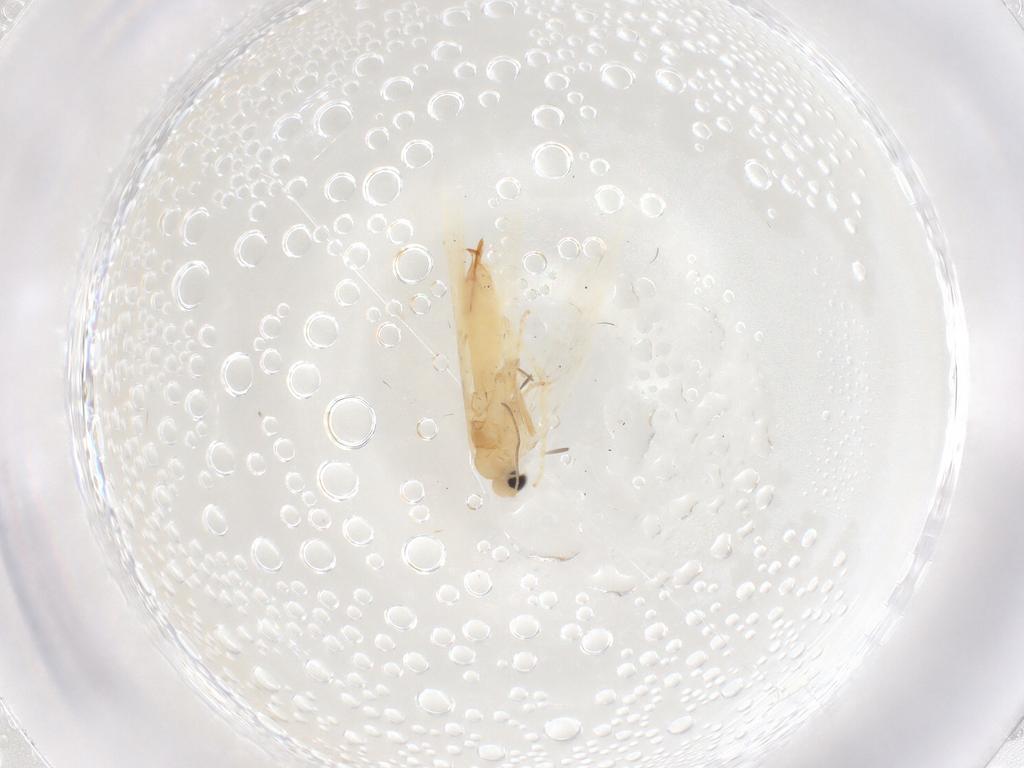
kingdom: Animalia
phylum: Arthropoda
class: Insecta
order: Lepidoptera
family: Tischeriidae
